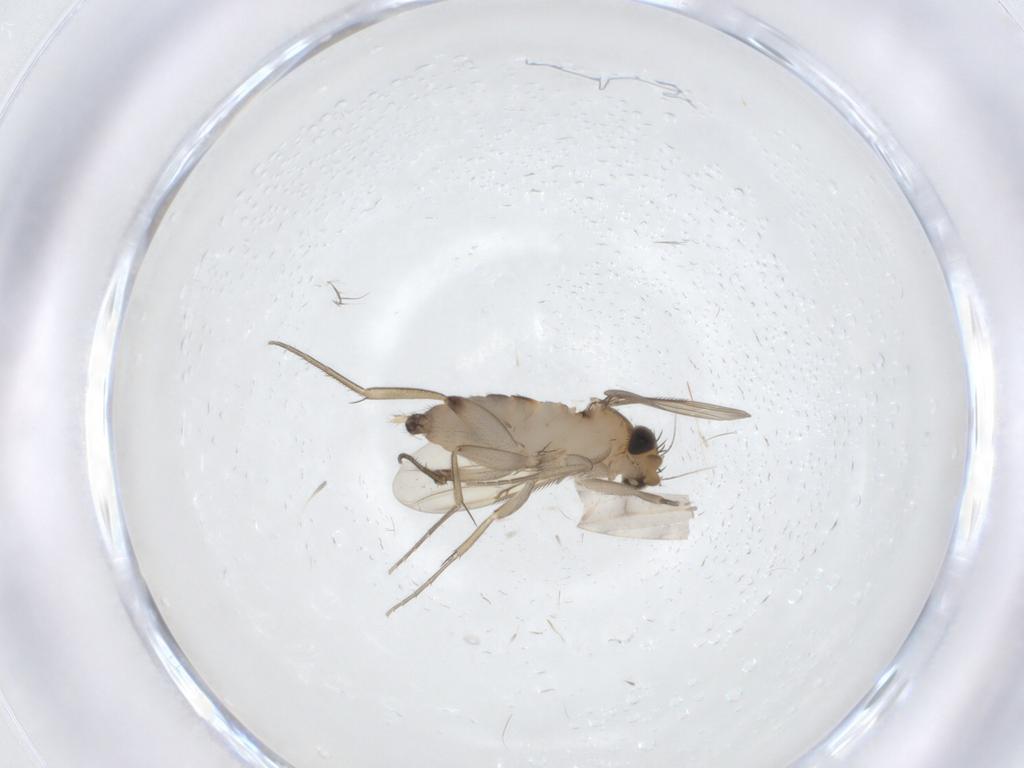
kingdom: Animalia
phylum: Arthropoda
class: Insecta
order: Diptera
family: Phoridae
